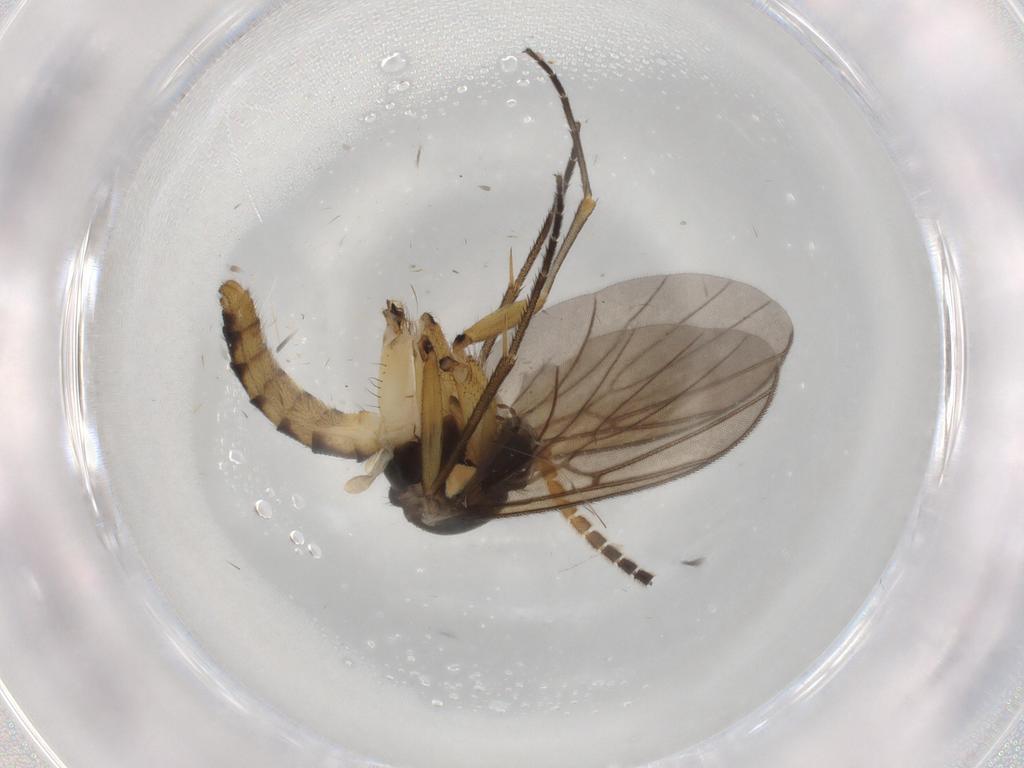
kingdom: Animalia
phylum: Arthropoda
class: Insecta
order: Diptera
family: Mycetophilidae
